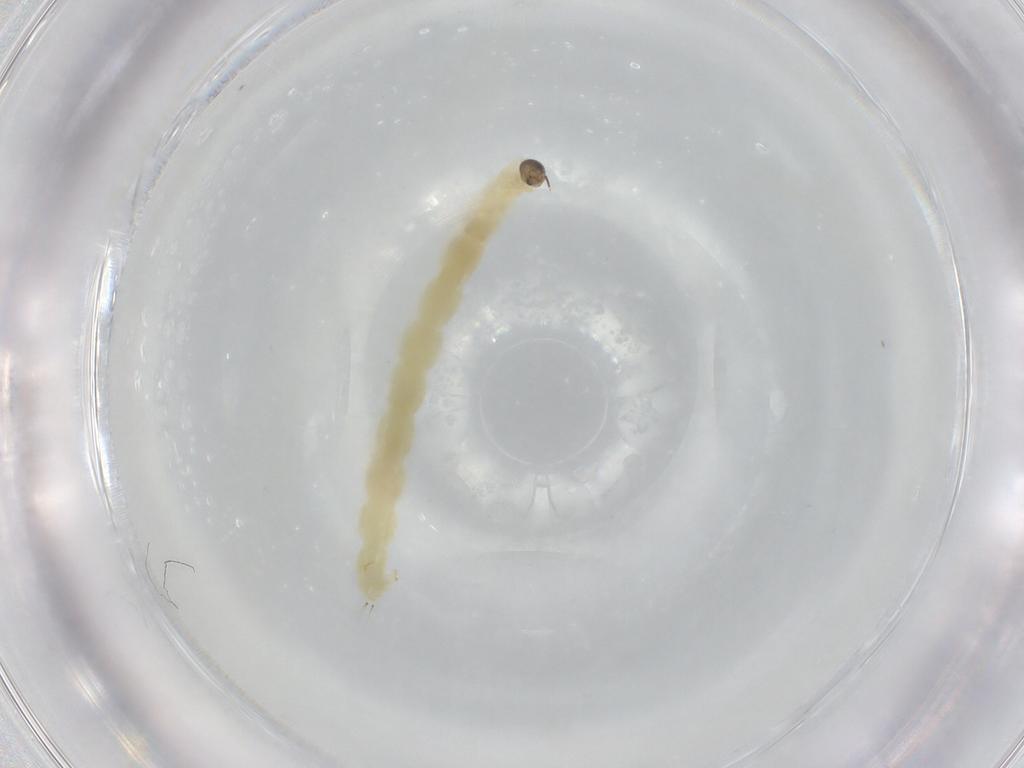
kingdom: Animalia
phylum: Arthropoda
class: Insecta
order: Diptera
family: Chironomidae
